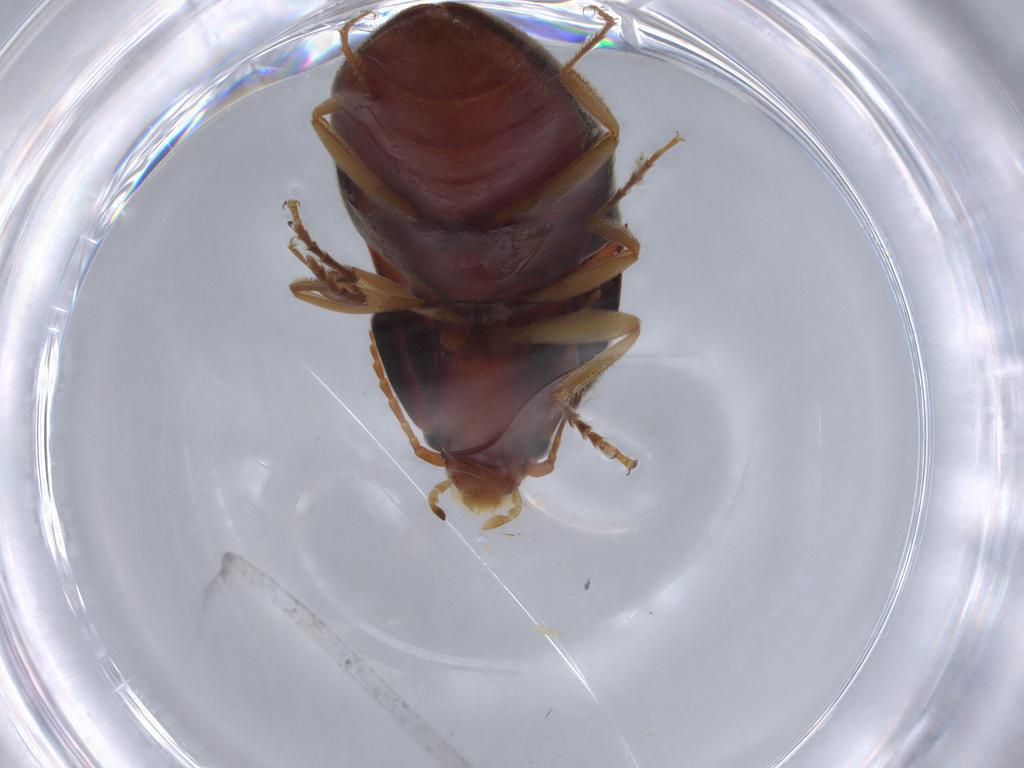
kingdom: Animalia
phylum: Arthropoda
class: Insecta
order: Coleoptera
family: Elateridae
